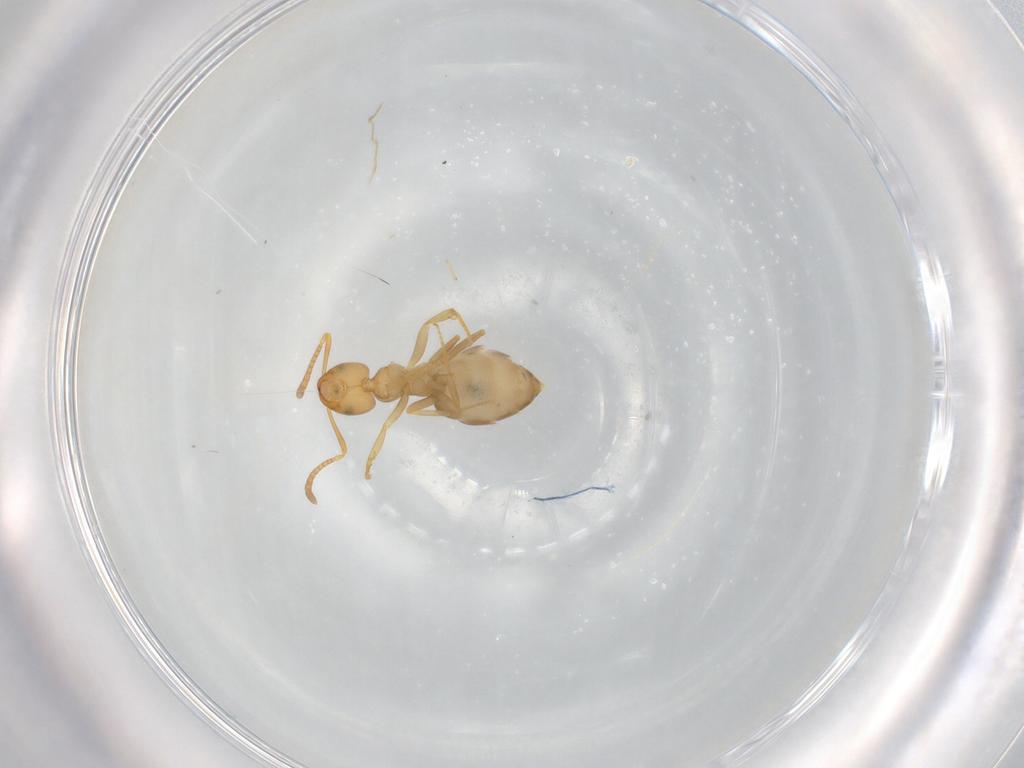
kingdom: Animalia
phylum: Arthropoda
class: Insecta
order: Hymenoptera
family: Formicidae
